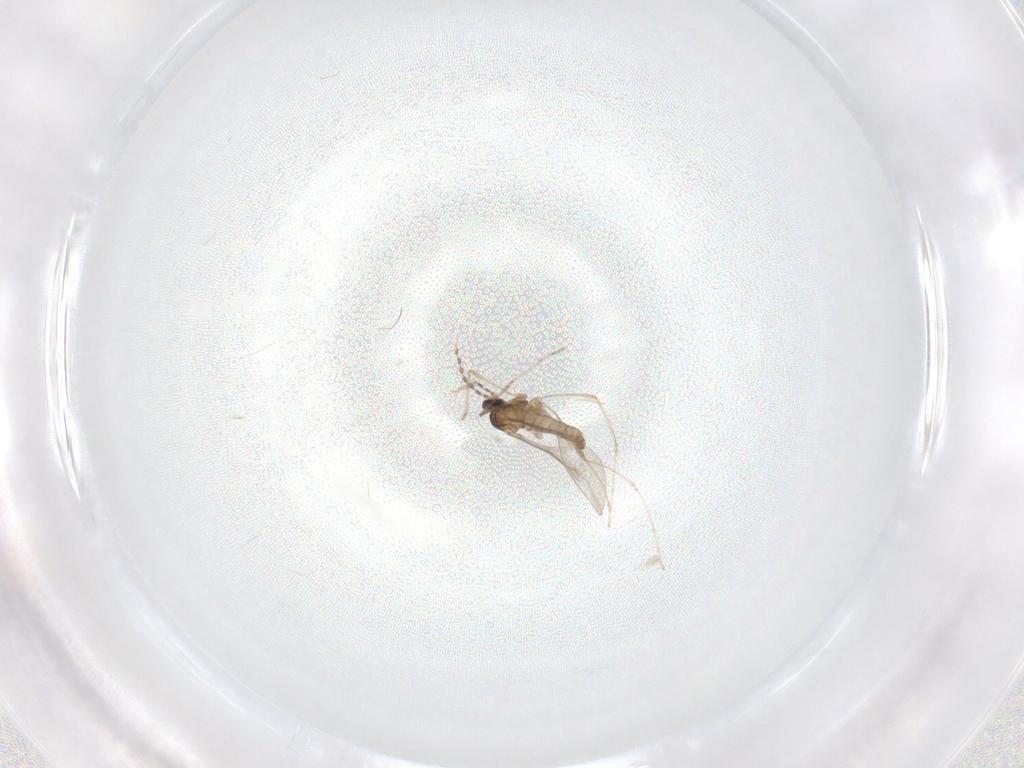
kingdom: Animalia
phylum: Arthropoda
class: Insecta
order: Diptera
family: Cecidomyiidae
